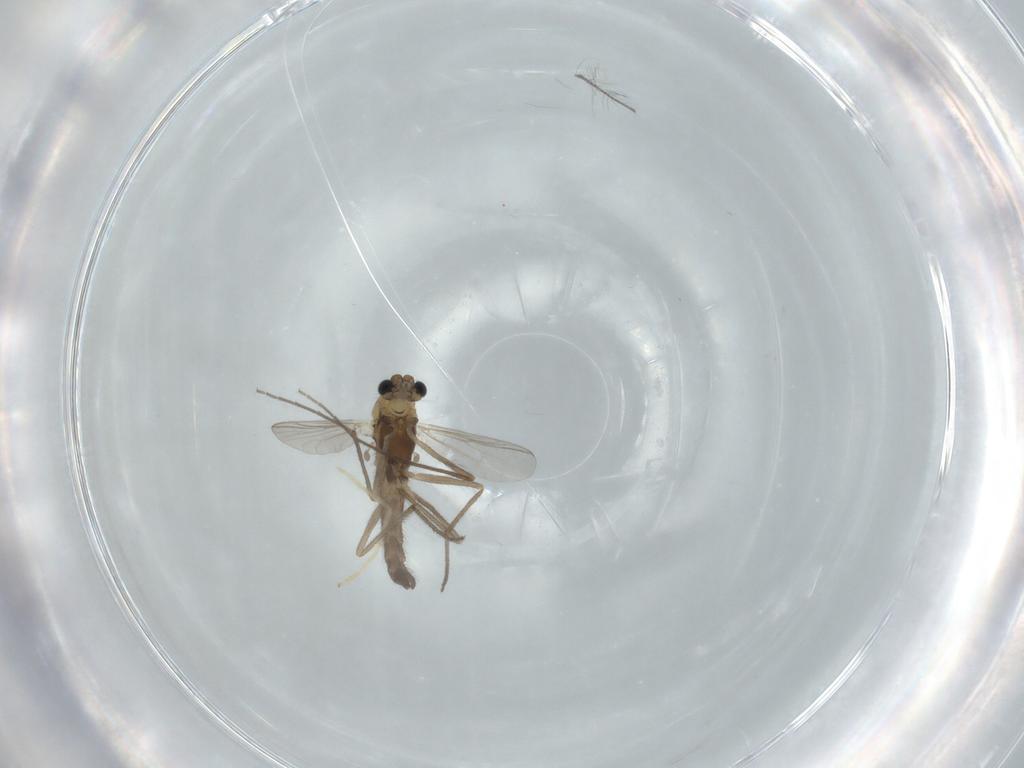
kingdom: Animalia
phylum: Arthropoda
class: Insecta
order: Diptera
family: Chironomidae
